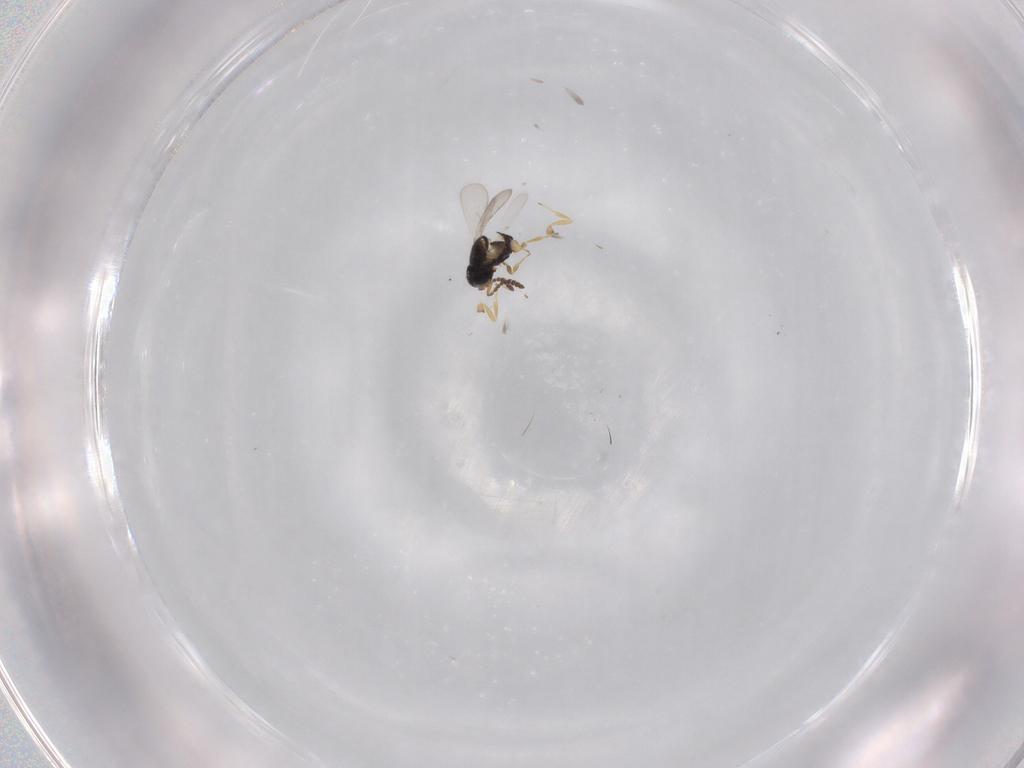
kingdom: Animalia
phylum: Arthropoda
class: Insecta
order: Hymenoptera
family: Scelionidae
